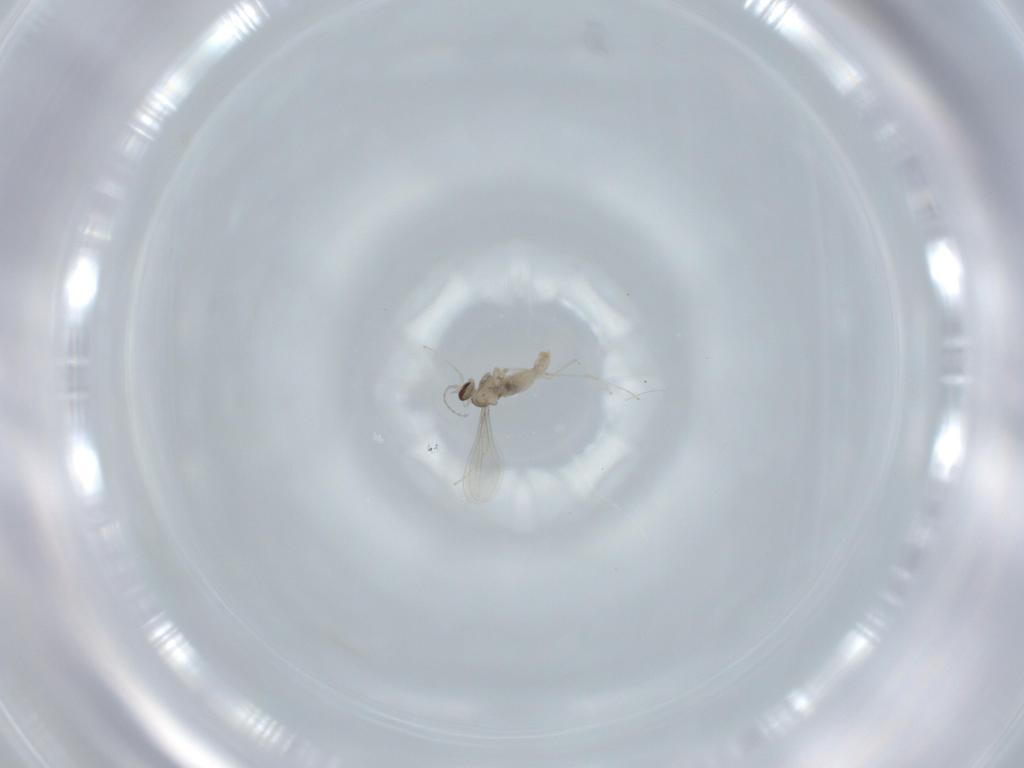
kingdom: Animalia
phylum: Arthropoda
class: Insecta
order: Diptera
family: Cecidomyiidae
